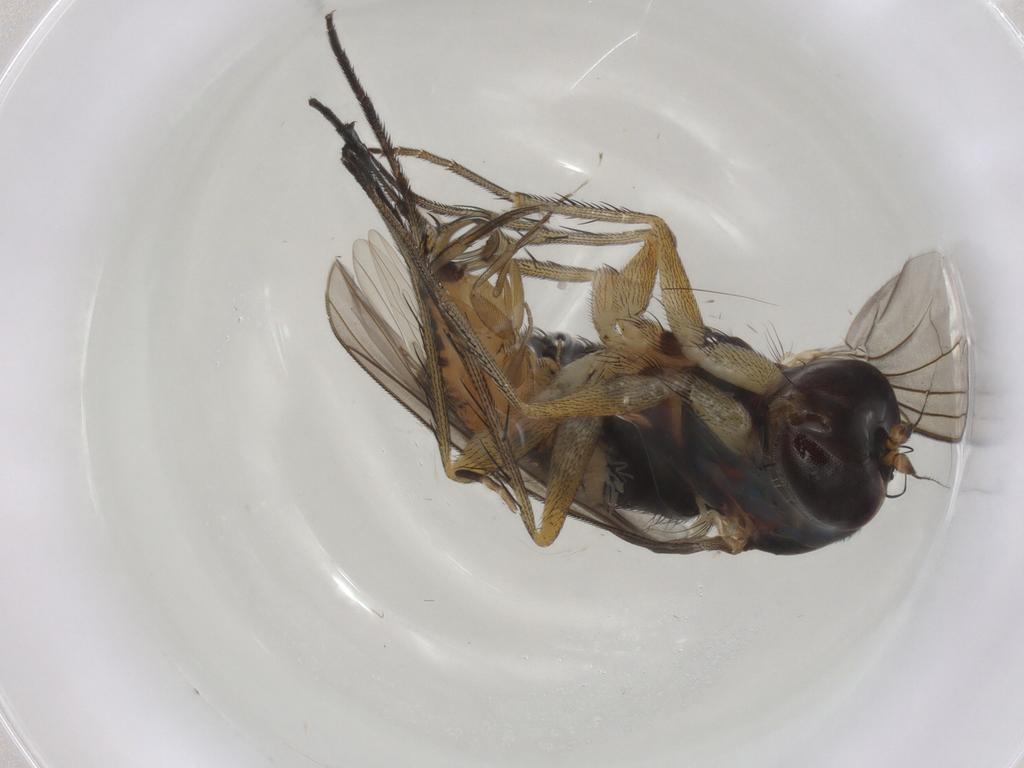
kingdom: Animalia
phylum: Arthropoda
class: Insecta
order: Diptera
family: Dolichopodidae
